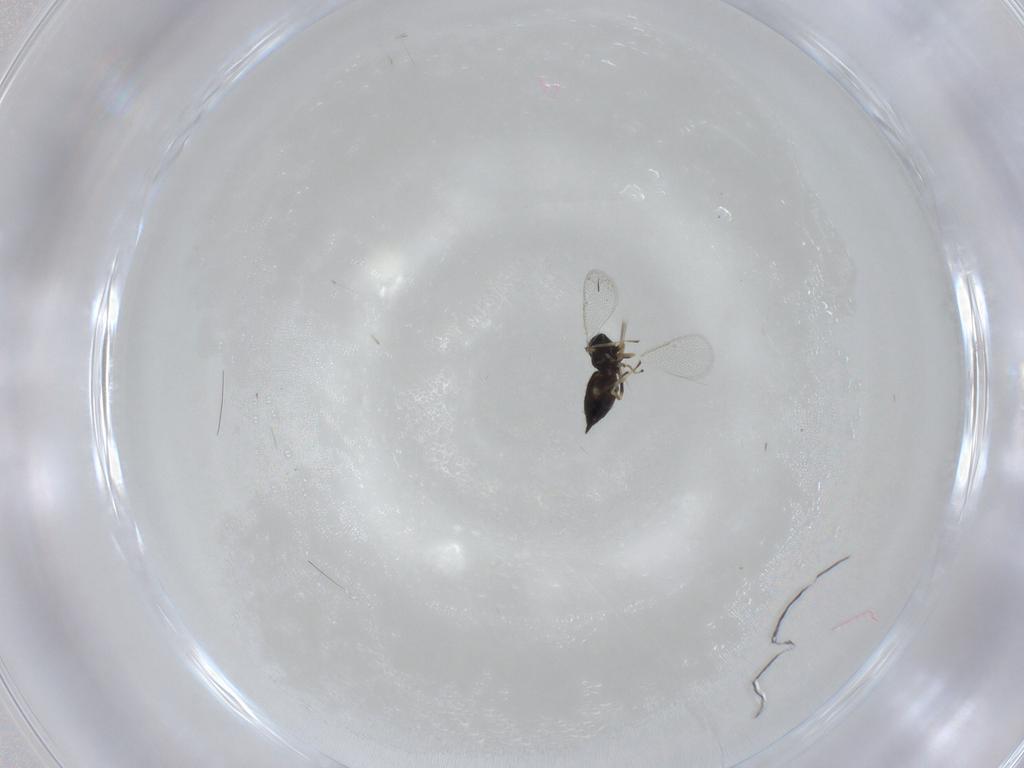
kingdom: Animalia
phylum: Arthropoda
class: Insecta
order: Hymenoptera
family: Eulophidae
